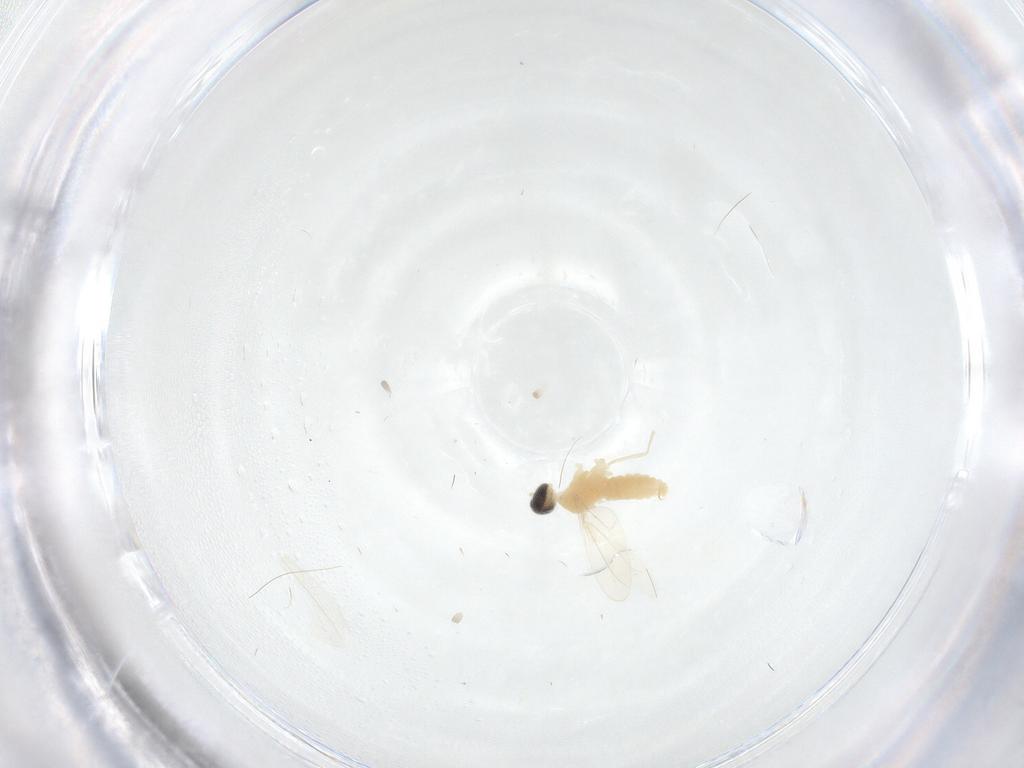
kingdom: Animalia
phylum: Arthropoda
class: Insecta
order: Diptera
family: Cecidomyiidae
